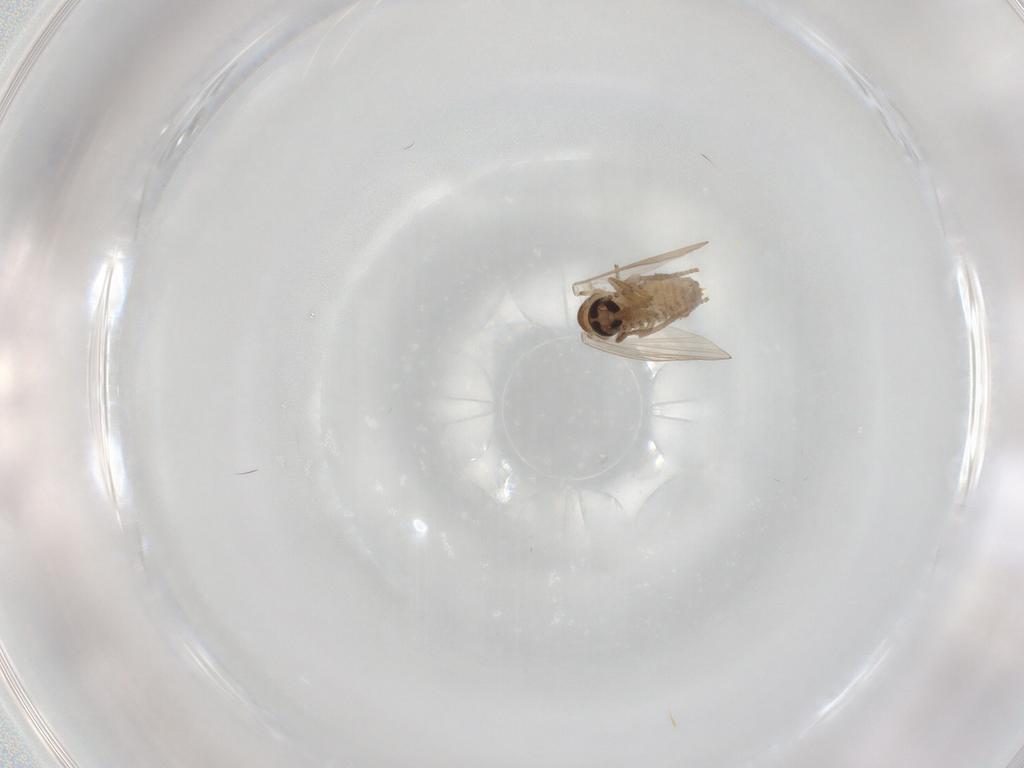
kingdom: Animalia
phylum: Arthropoda
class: Insecta
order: Diptera
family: Psychodidae
